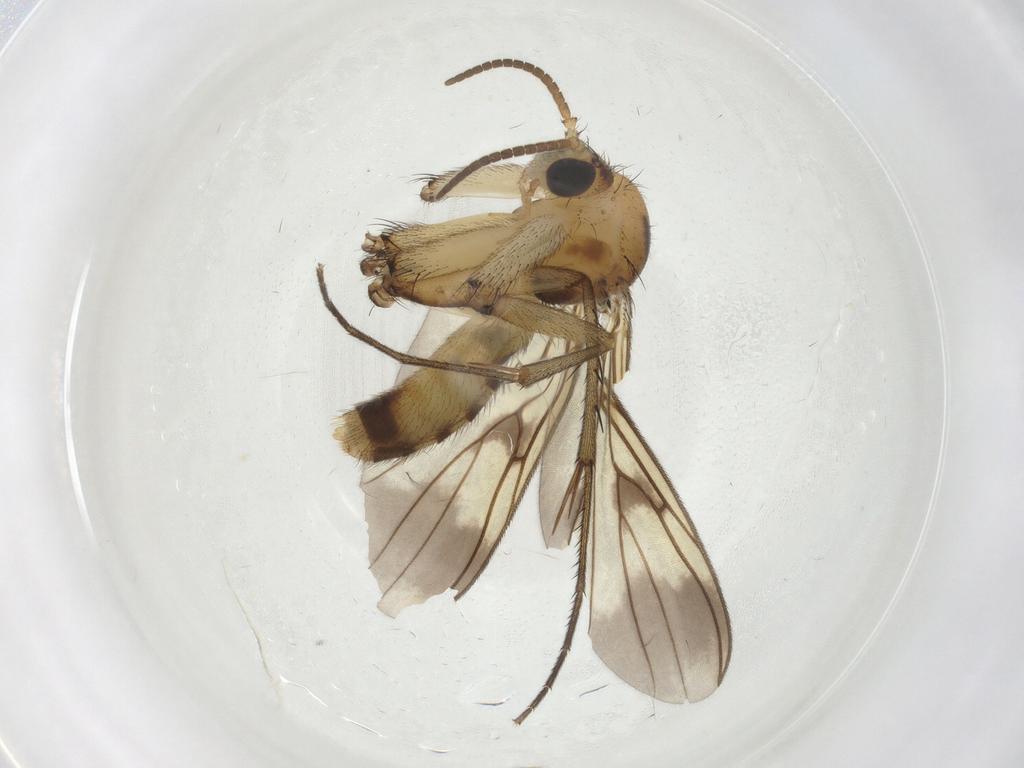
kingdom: Animalia
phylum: Arthropoda
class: Insecta
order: Diptera
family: Mycetophilidae
